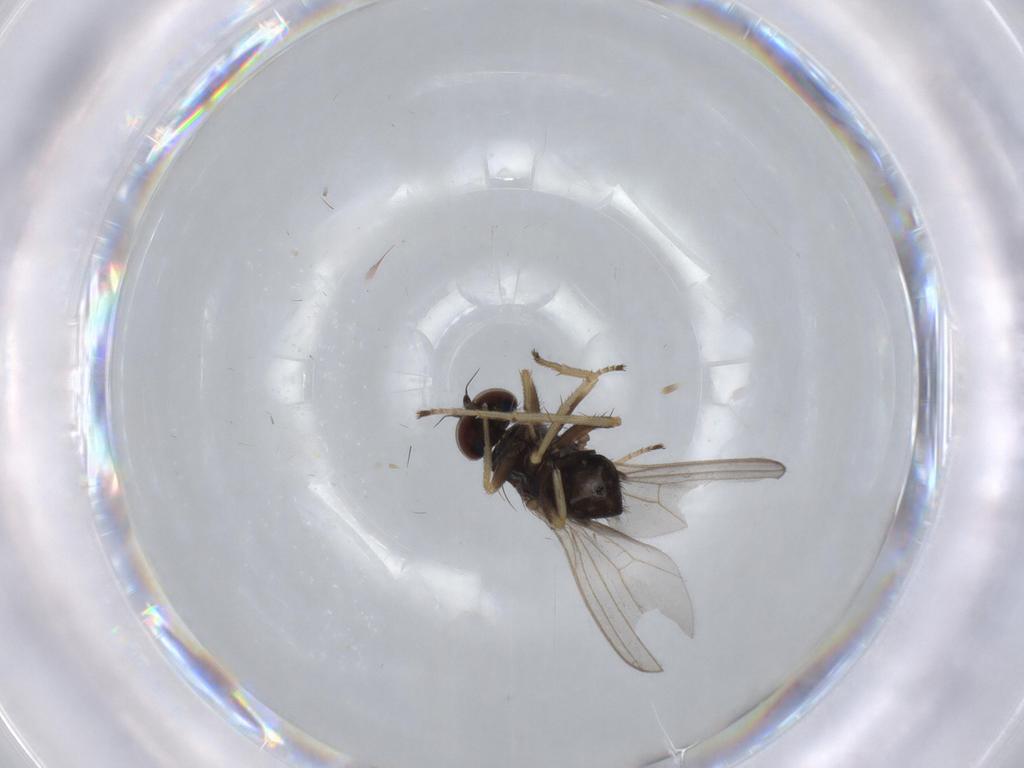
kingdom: Animalia
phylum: Arthropoda
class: Insecta
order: Diptera
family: Dolichopodidae
